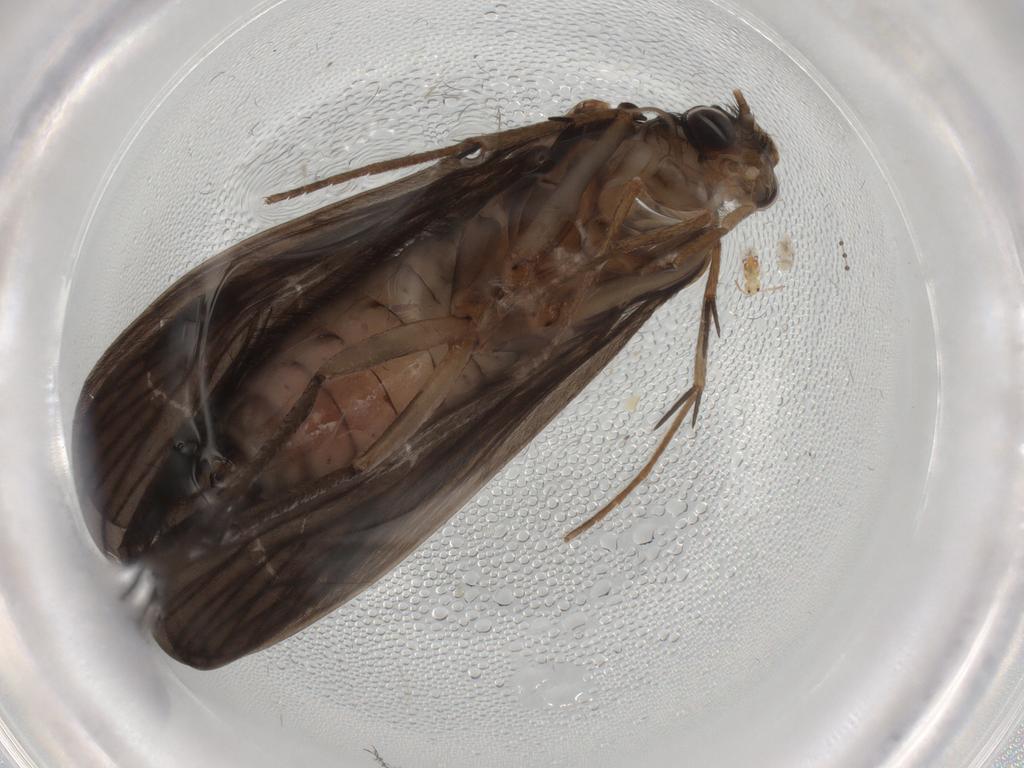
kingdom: Animalia
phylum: Arthropoda
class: Insecta
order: Trichoptera
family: Philopotamidae
